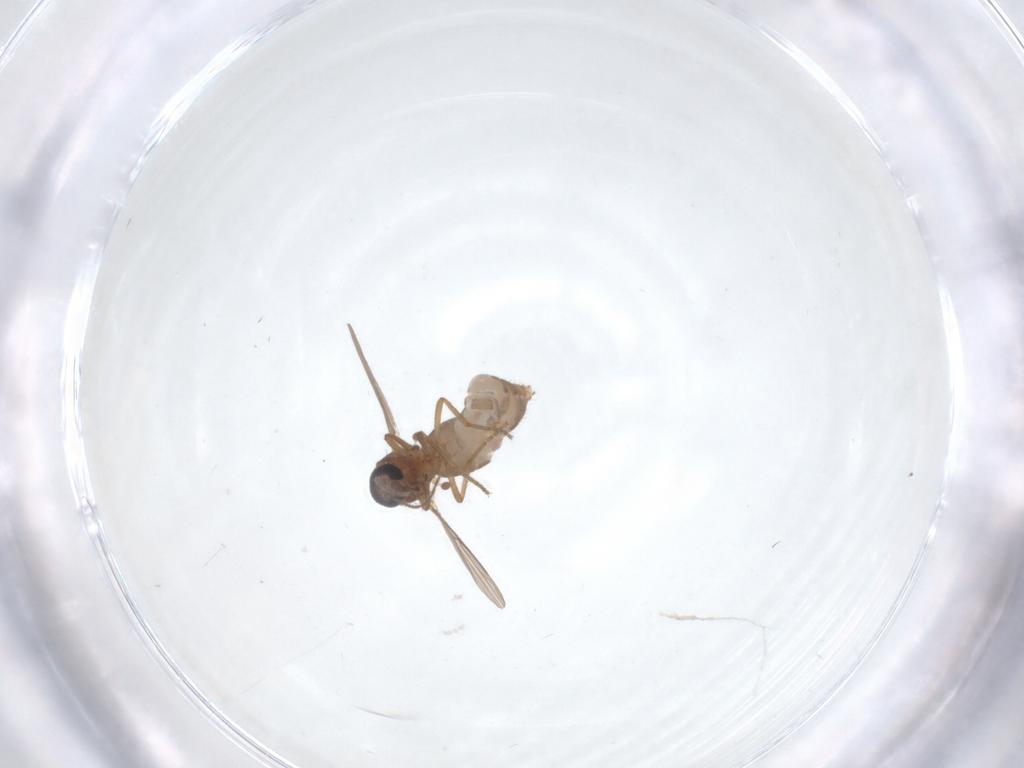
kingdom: Animalia
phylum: Arthropoda
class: Insecta
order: Diptera
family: Ceratopogonidae
